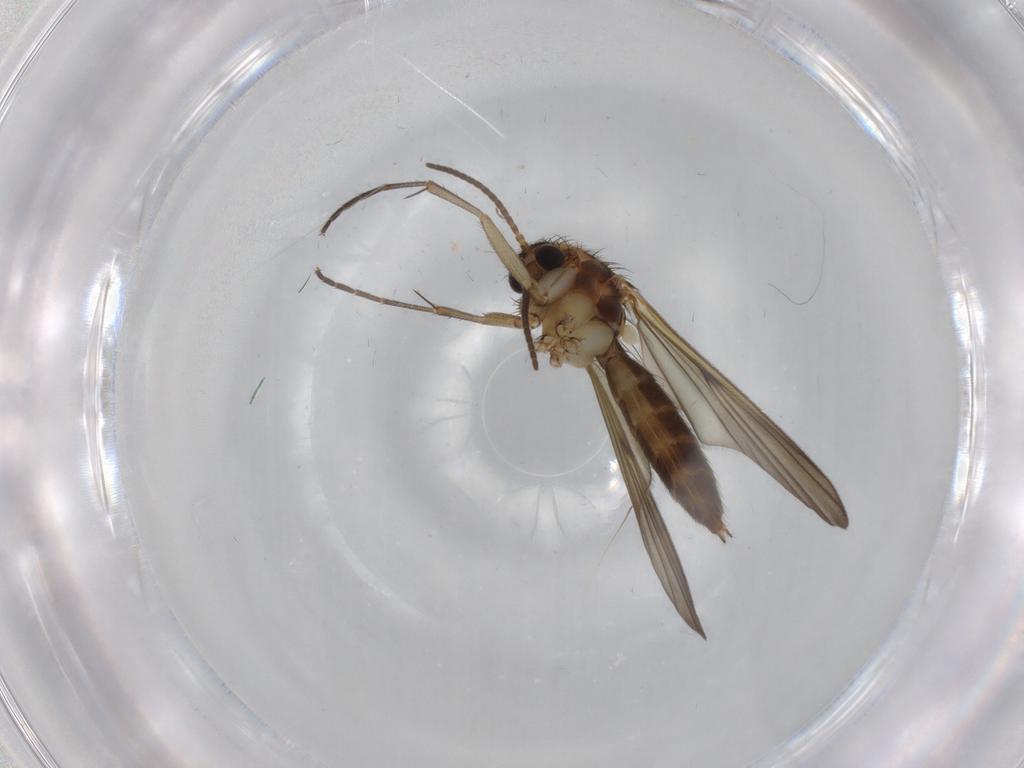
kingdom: Animalia
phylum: Arthropoda
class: Insecta
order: Diptera
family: Mycetophilidae
